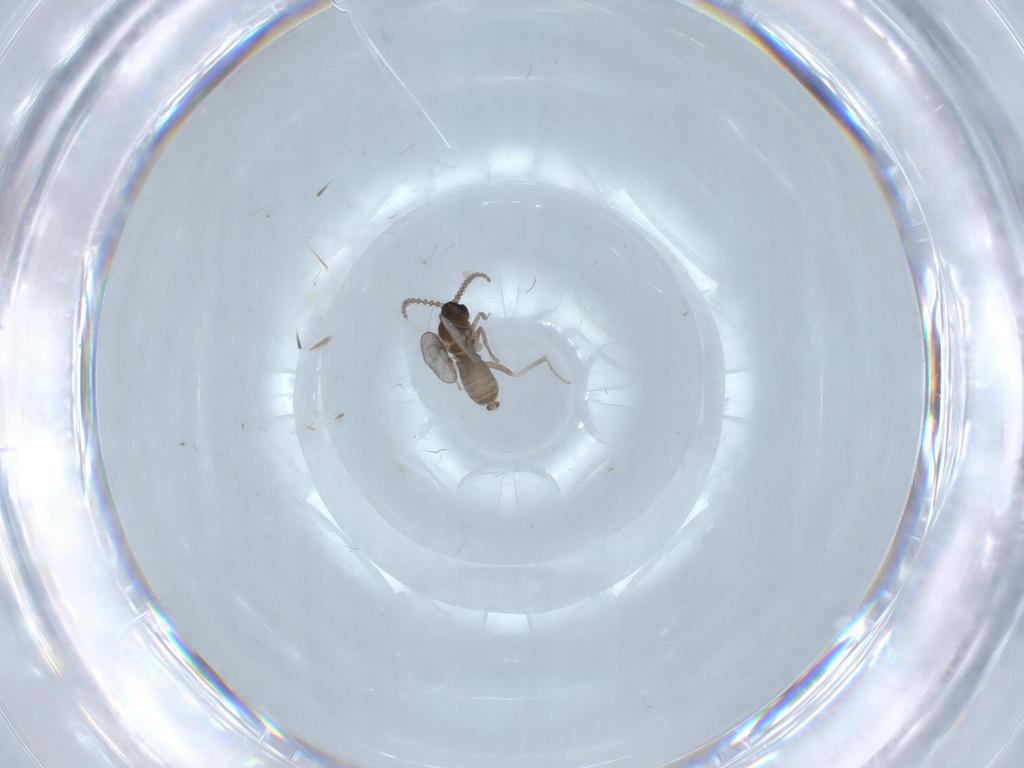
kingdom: Animalia
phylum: Arthropoda
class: Insecta
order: Diptera
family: Cecidomyiidae
